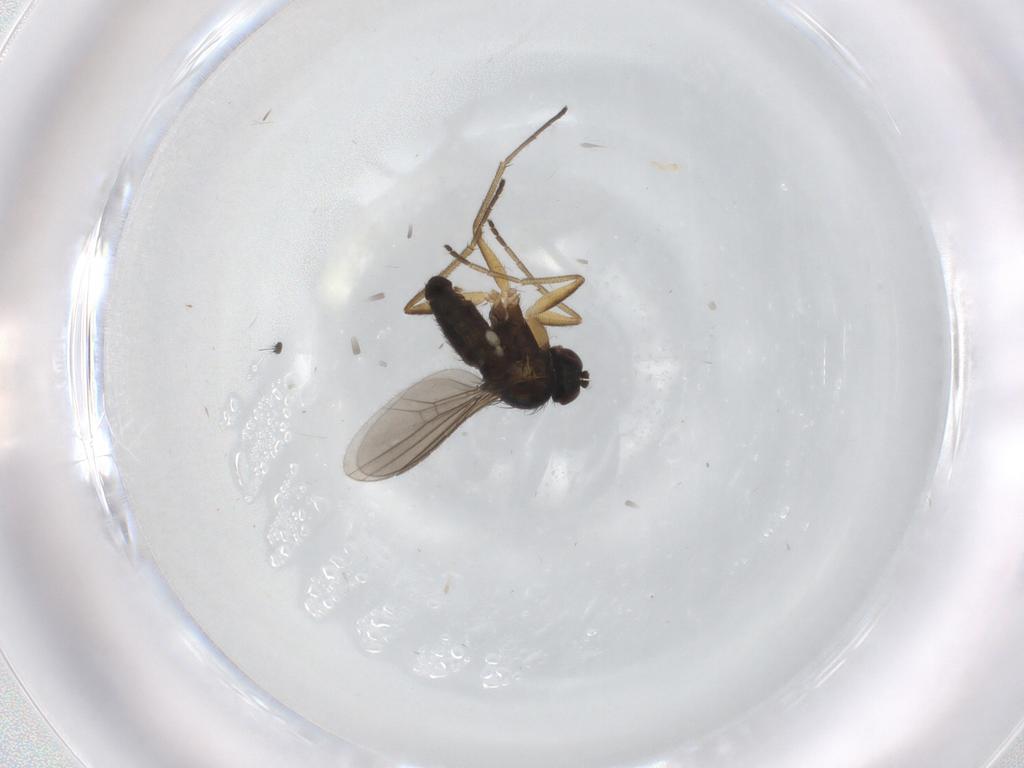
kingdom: Animalia
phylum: Arthropoda
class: Insecta
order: Diptera
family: Dolichopodidae
